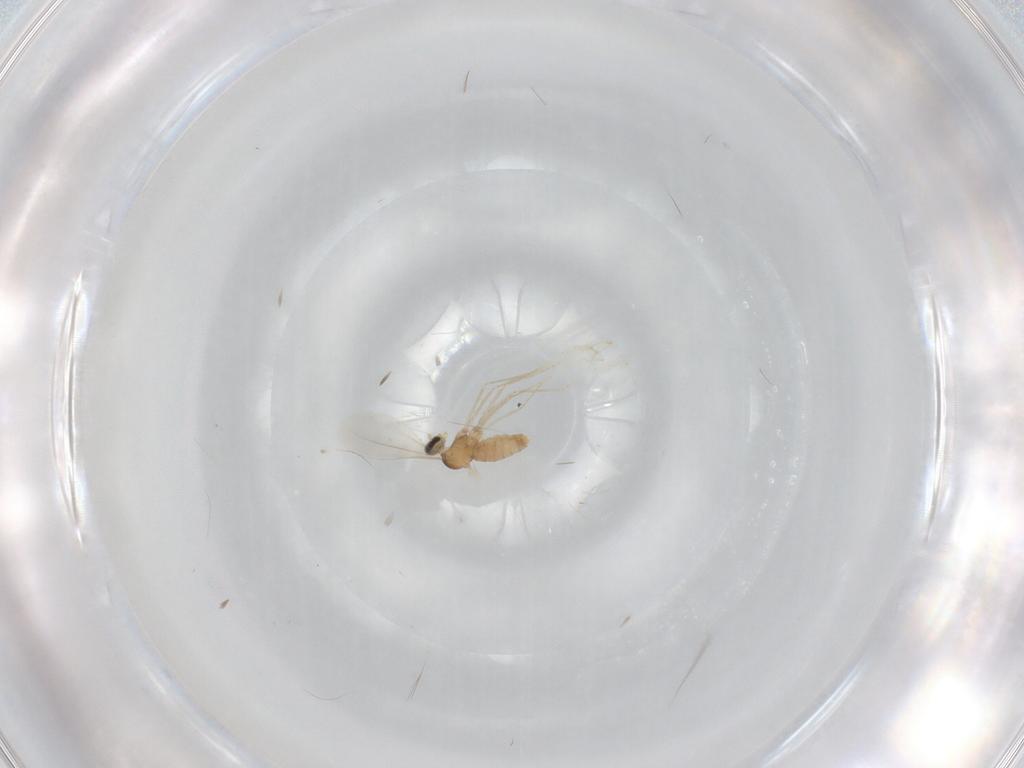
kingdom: Animalia
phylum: Arthropoda
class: Insecta
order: Diptera
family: Cecidomyiidae
